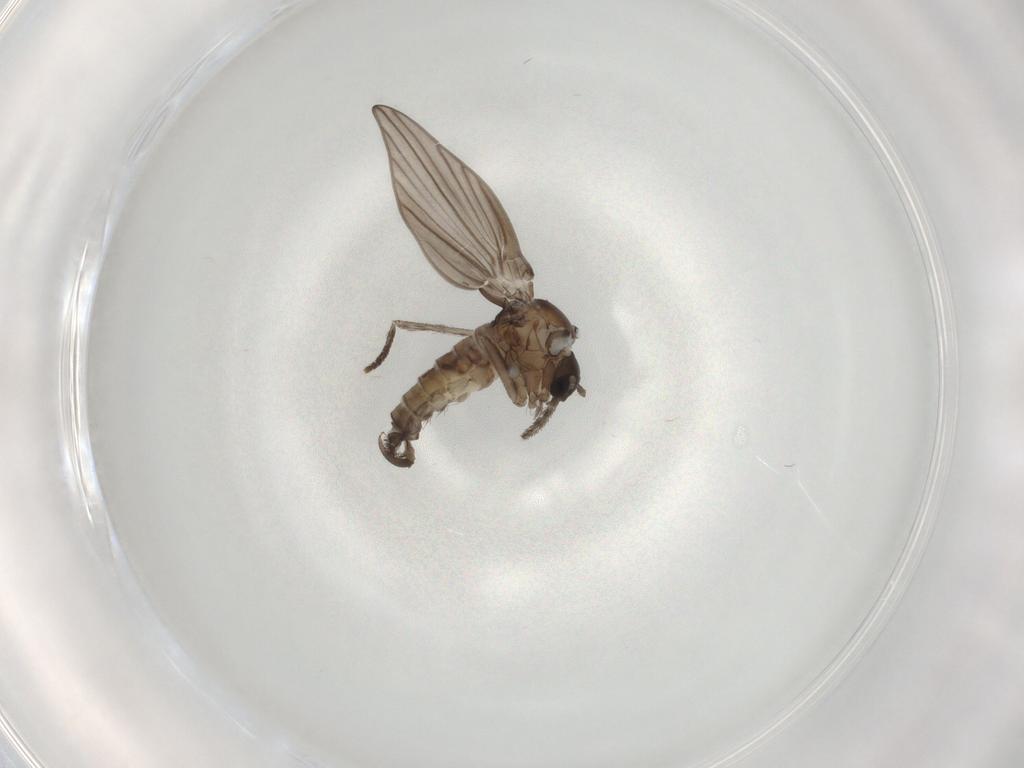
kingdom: Animalia
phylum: Arthropoda
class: Insecta
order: Diptera
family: Psychodidae
